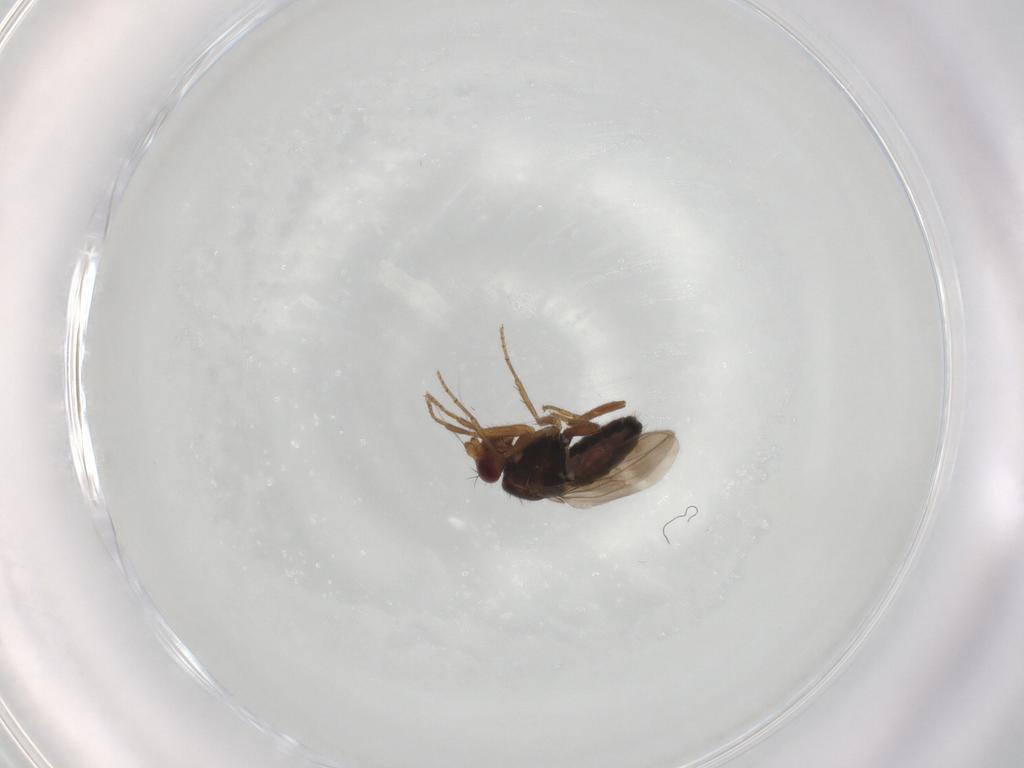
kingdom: Animalia
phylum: Arthropoda
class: Insecta
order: Diptera
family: Sphaeroceridae
